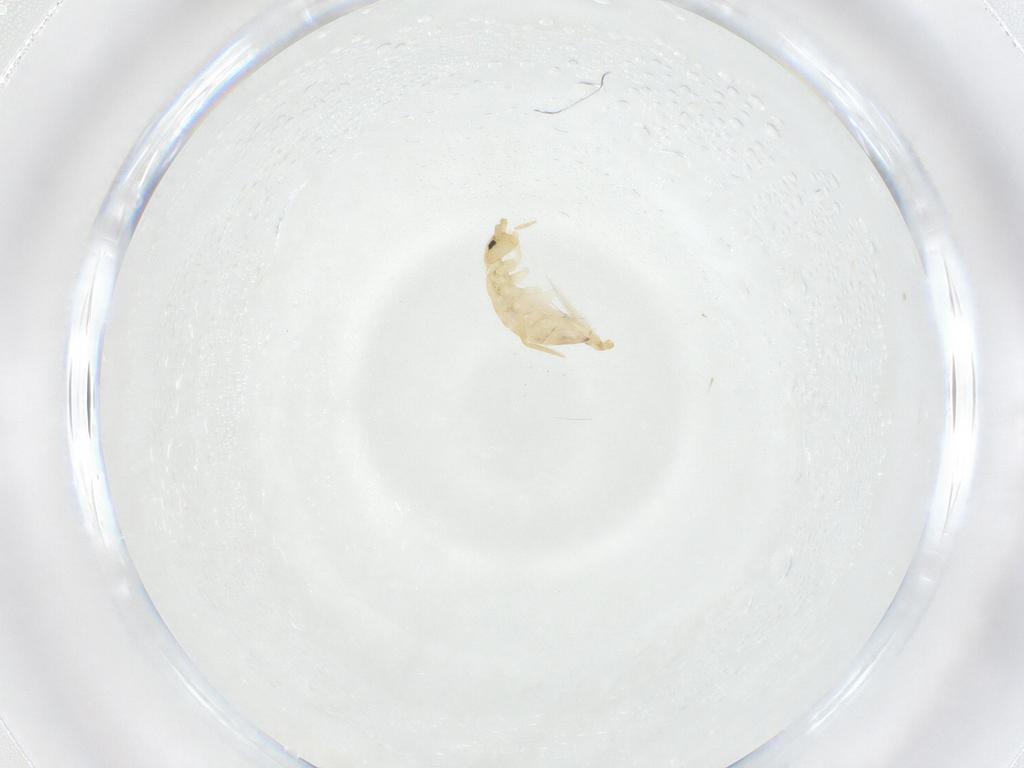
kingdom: Animalia
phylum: Arthropoda
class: Collembola
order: Entomobryomorpha
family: Entomobryidae
